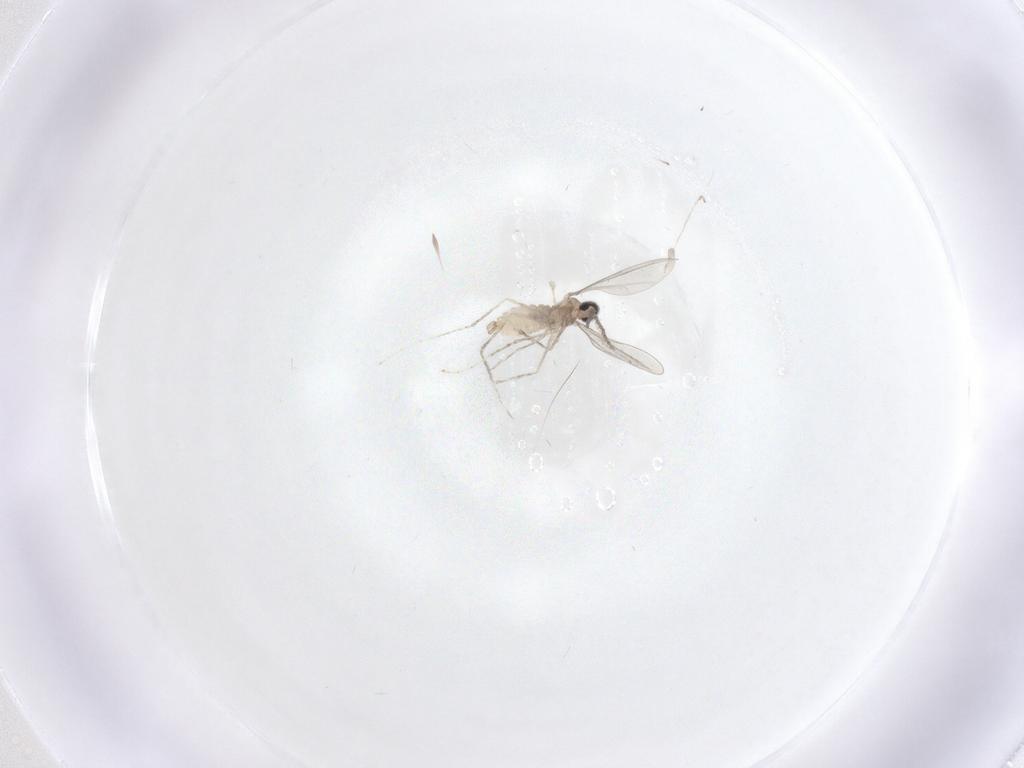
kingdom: Animalia
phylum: Arthropoda
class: Insecta
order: Diptera
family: Cecidomyiidae
